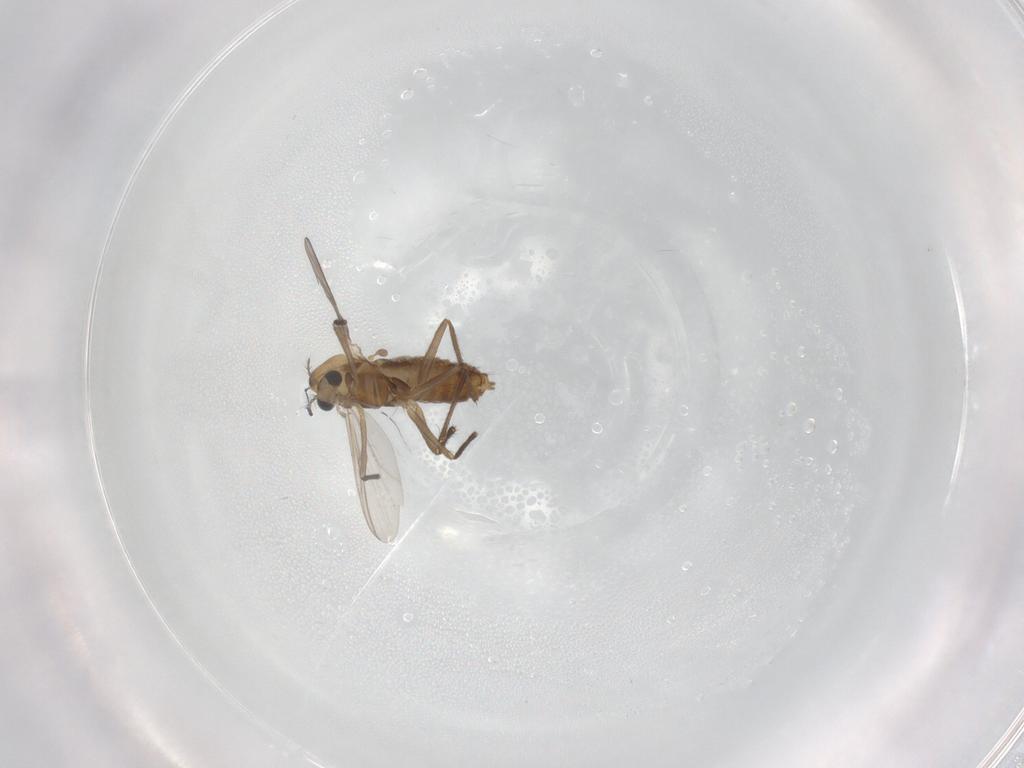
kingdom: Animalia
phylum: Arthropoda
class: Insecta
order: Diptera
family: Chironomidae
